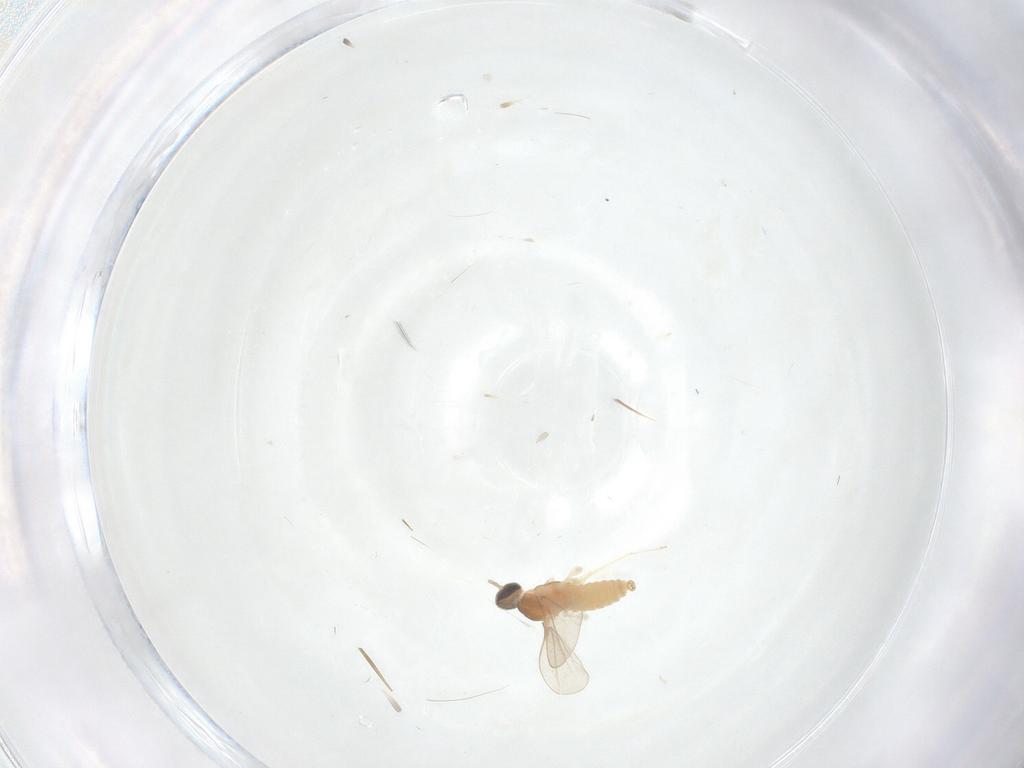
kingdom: Animalia
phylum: Arthropoda
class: Insecta
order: Diptera
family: Cecidomyiidae
